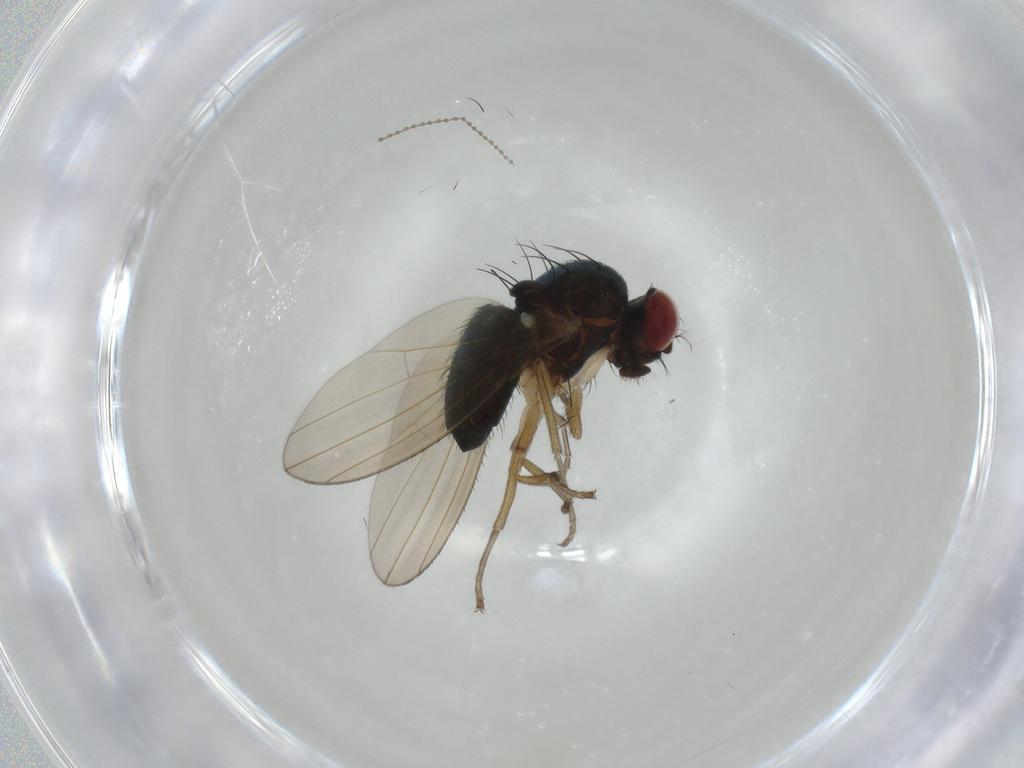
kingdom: Animalia
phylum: Arthropoda
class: Insecta
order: Diptera
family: Camillidae
